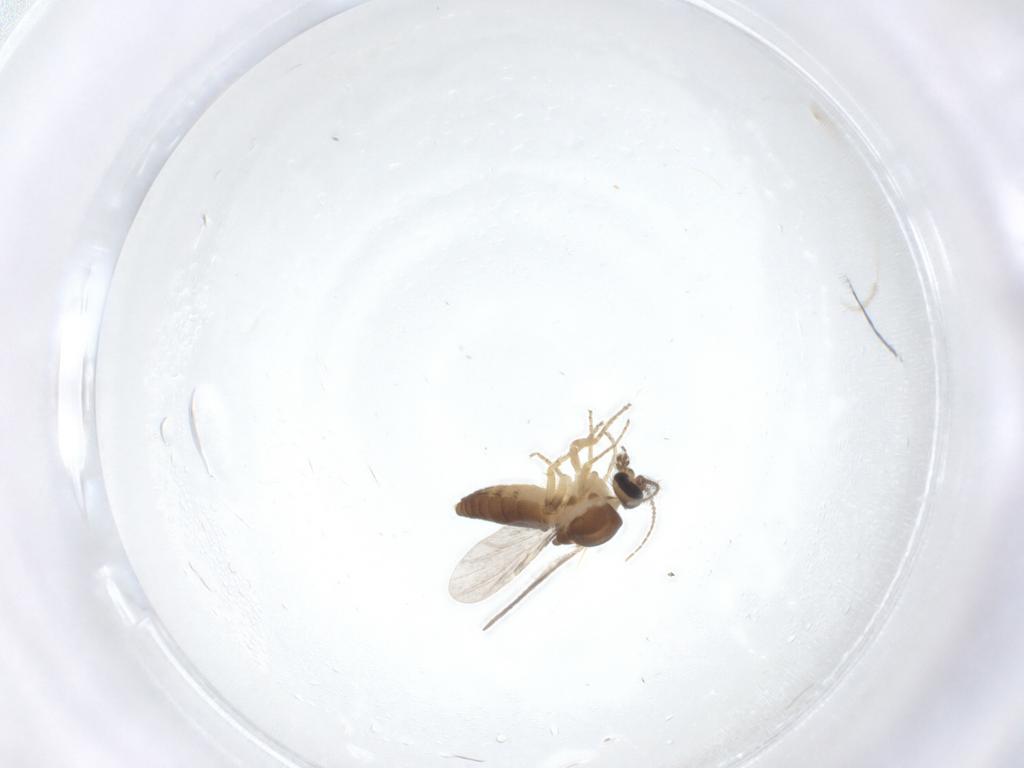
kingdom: Animalia
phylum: Arthropoda
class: Insecta
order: Diptera
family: Ceratopogonidae
